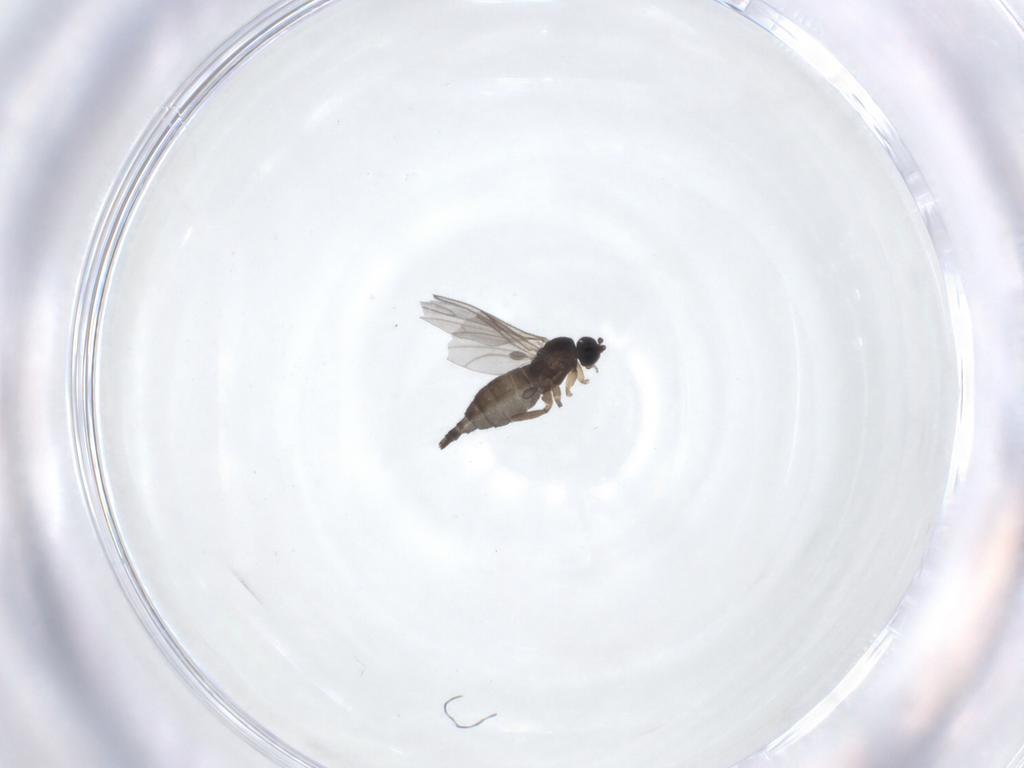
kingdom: Animalia
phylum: Arthropoda
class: Insecta
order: Diptera
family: Sciaridae
